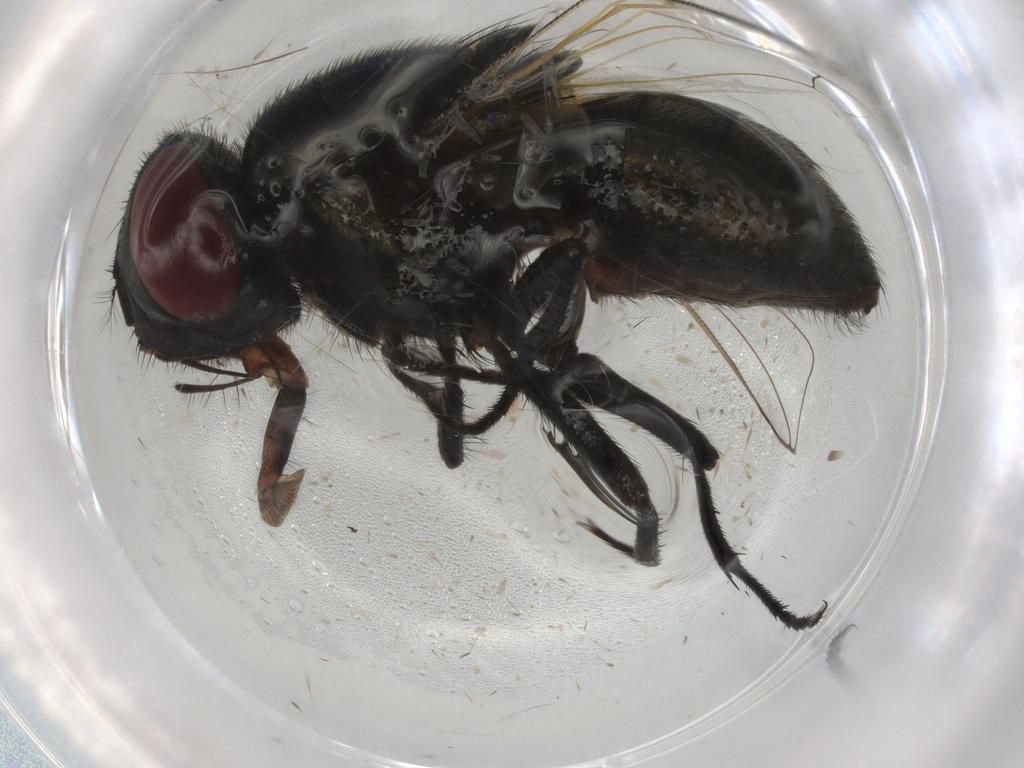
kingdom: Animalia
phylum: Arthropoda
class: Insecta
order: Diptera
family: Muscidae
